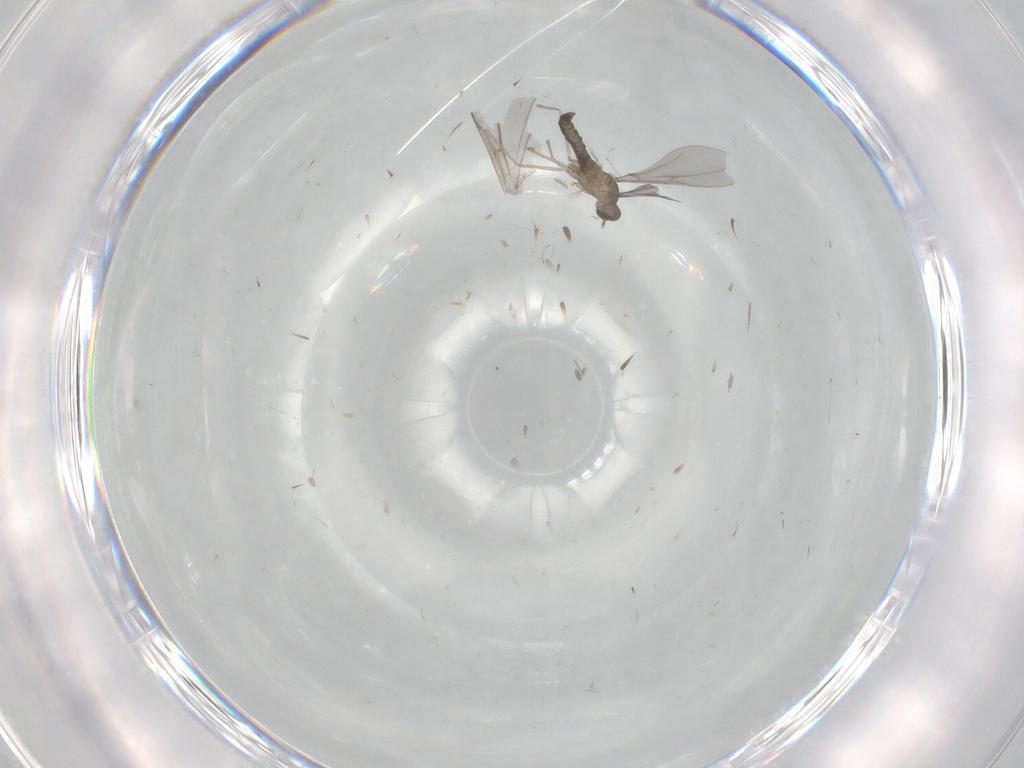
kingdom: Animalia
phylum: Arthropoda
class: Insecta
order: Diptera
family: Cecidomyiidae
